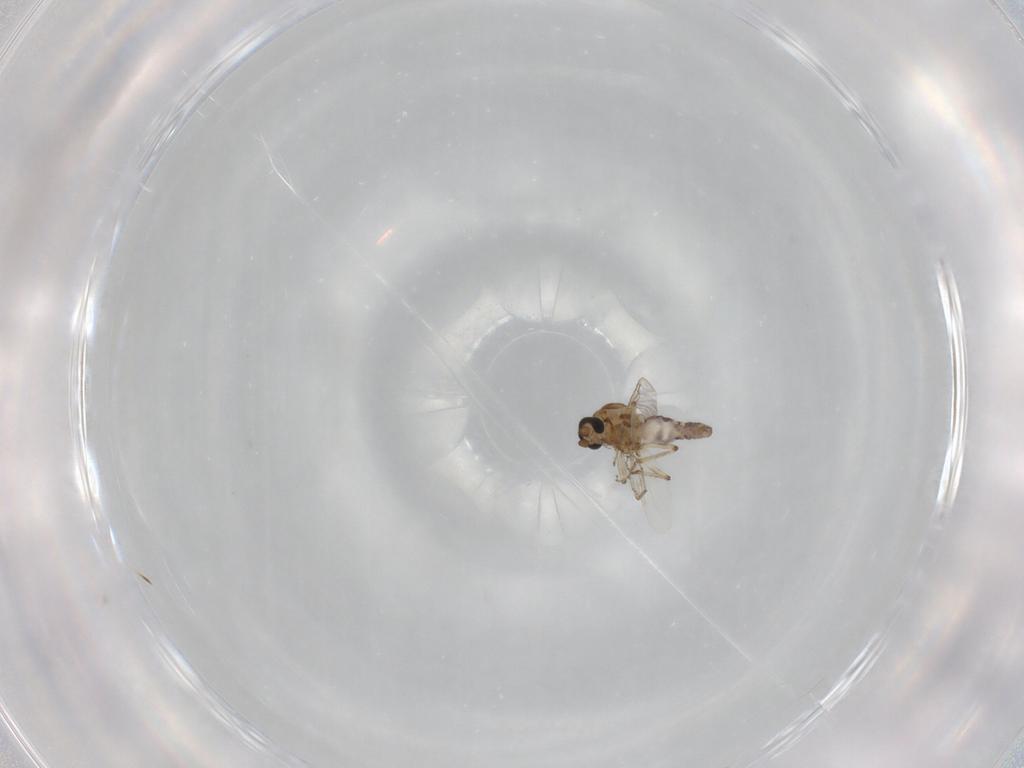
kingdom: Animalia
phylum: Arthropoda
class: Insecta
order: Diptera
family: Ceratopogonidae
